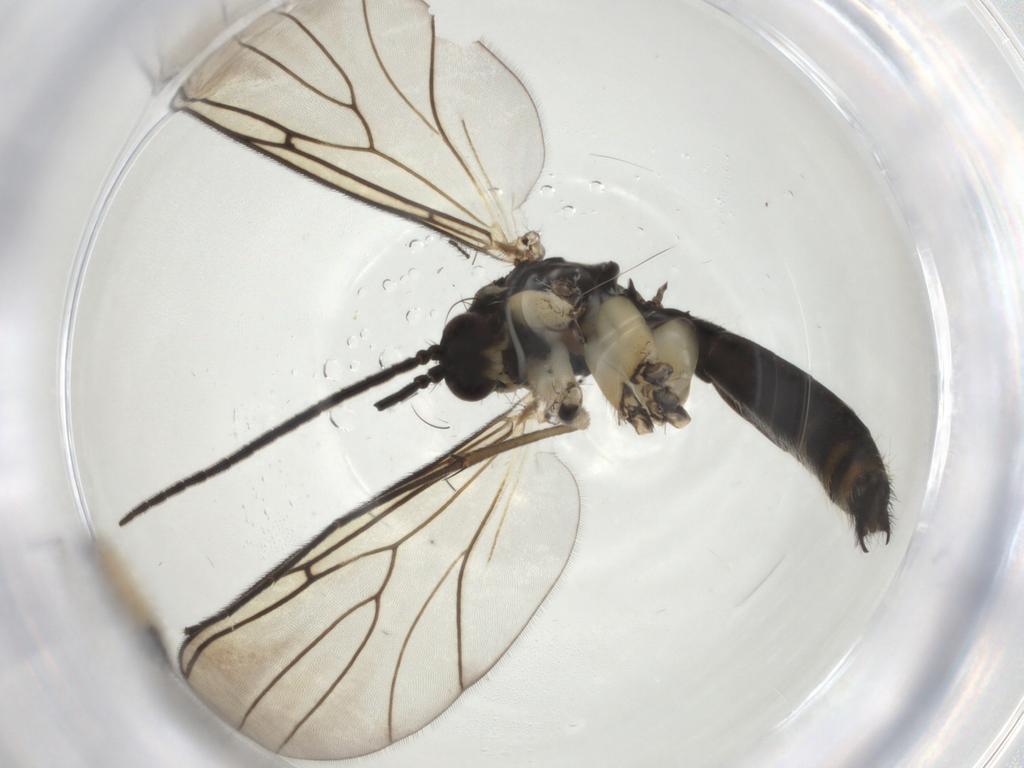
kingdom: Animalia
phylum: Arthropoda
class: Insecta
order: Diptera
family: Mycetophilidae
